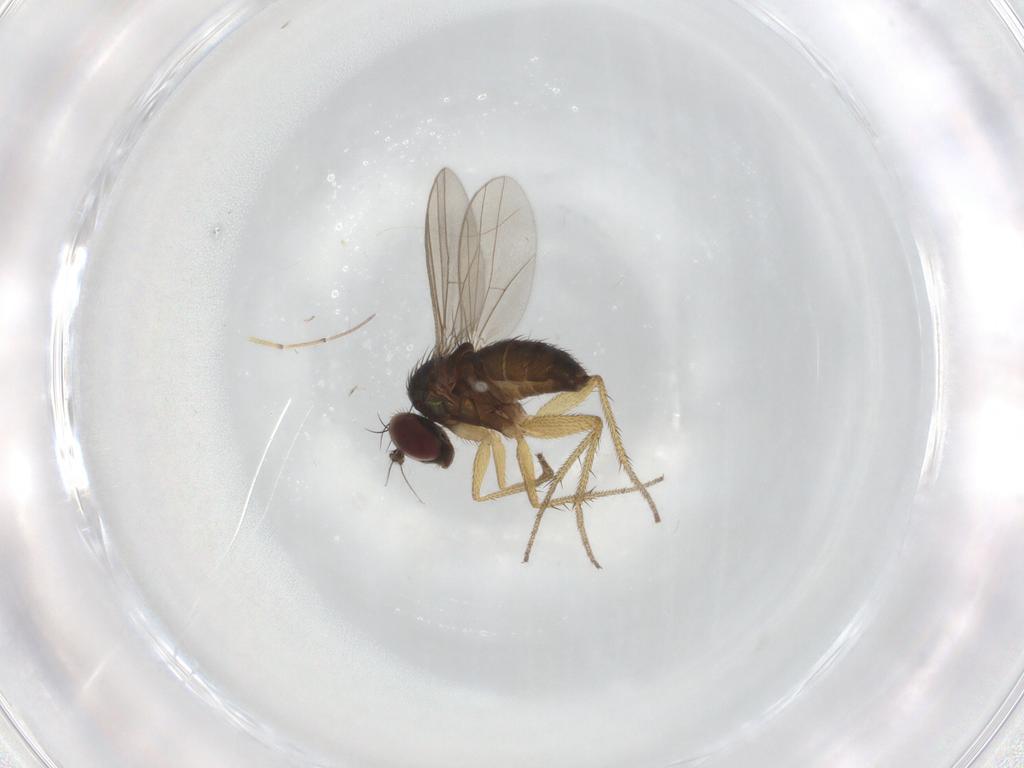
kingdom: Animalia
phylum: Arthropoda
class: Insecta
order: Diptera
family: Dolichopodidae
